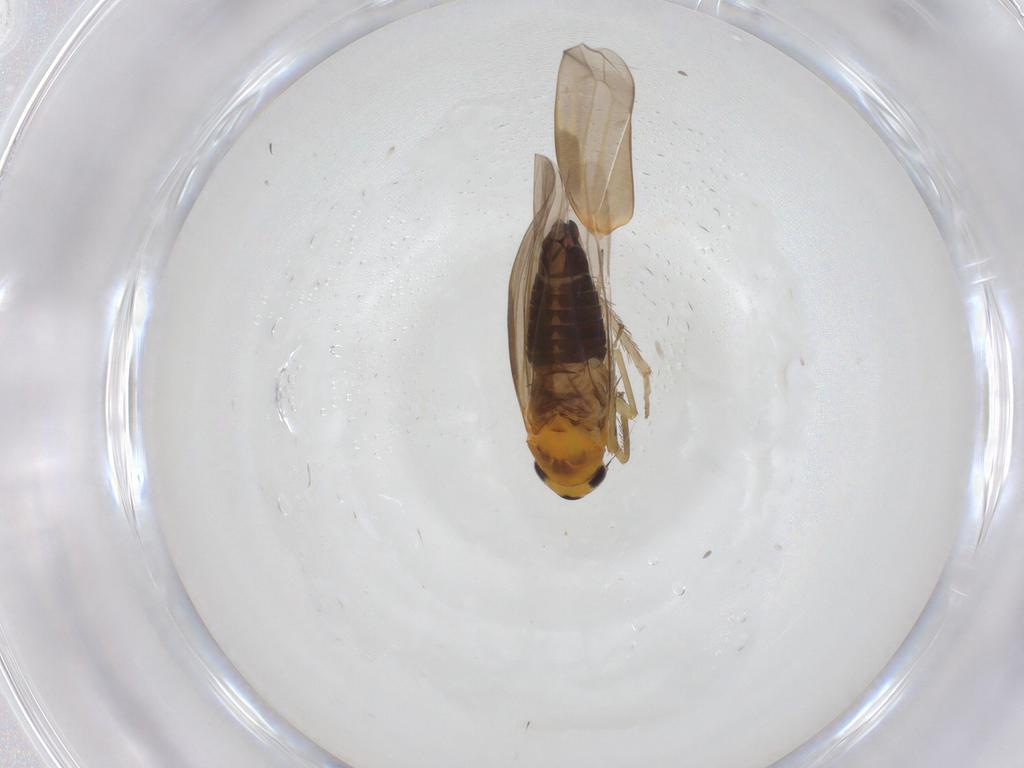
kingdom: Animalia
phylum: Arthropoda
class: Insecta
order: Hemiptera
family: Cicadellidae
